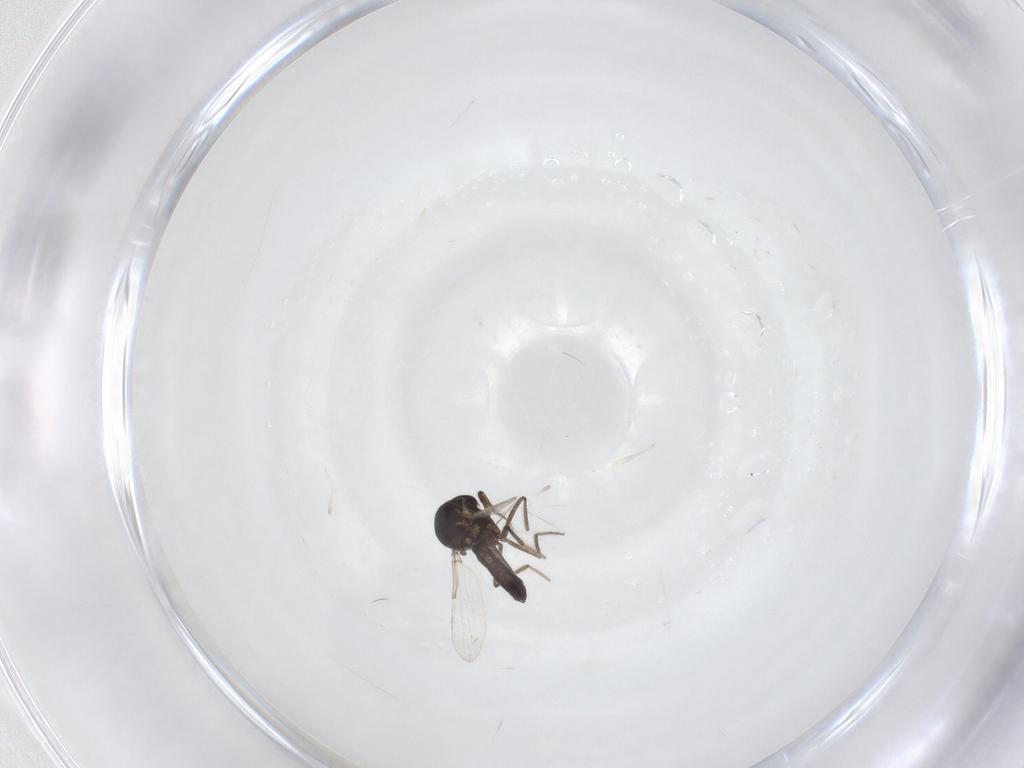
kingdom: Animalia
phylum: Arthropoda
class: Insecta
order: Diptera
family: Ceratopogonidae
